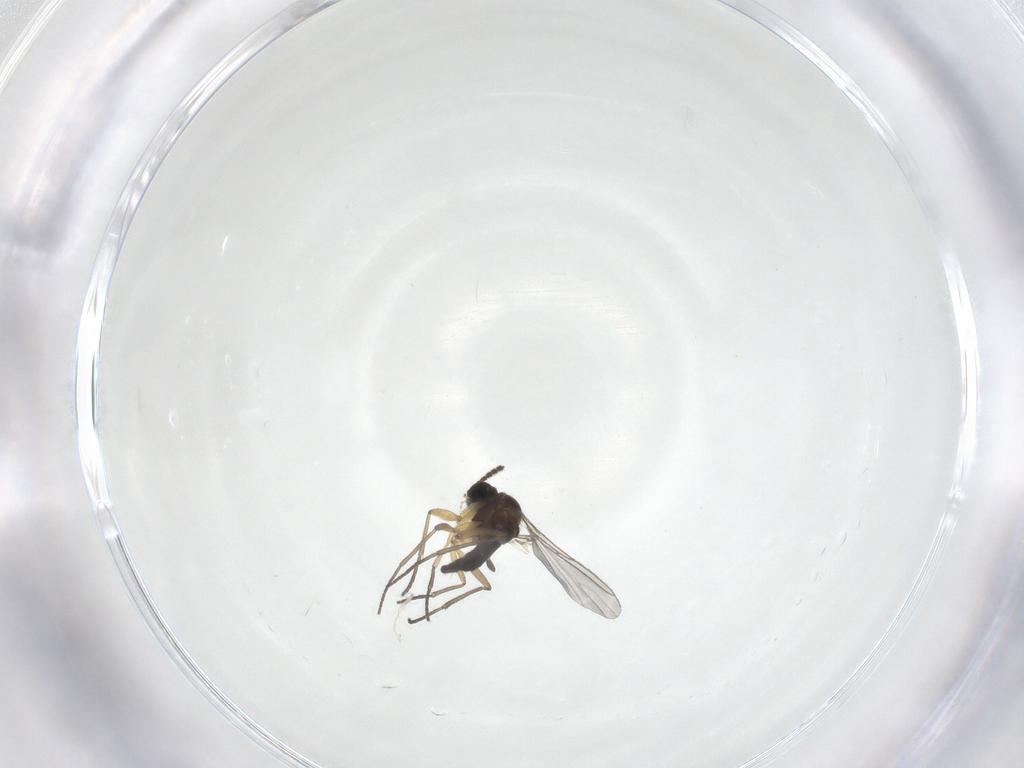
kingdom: Animalia
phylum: Arthropoda
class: Insecta
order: Diptera
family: Sciaridae
